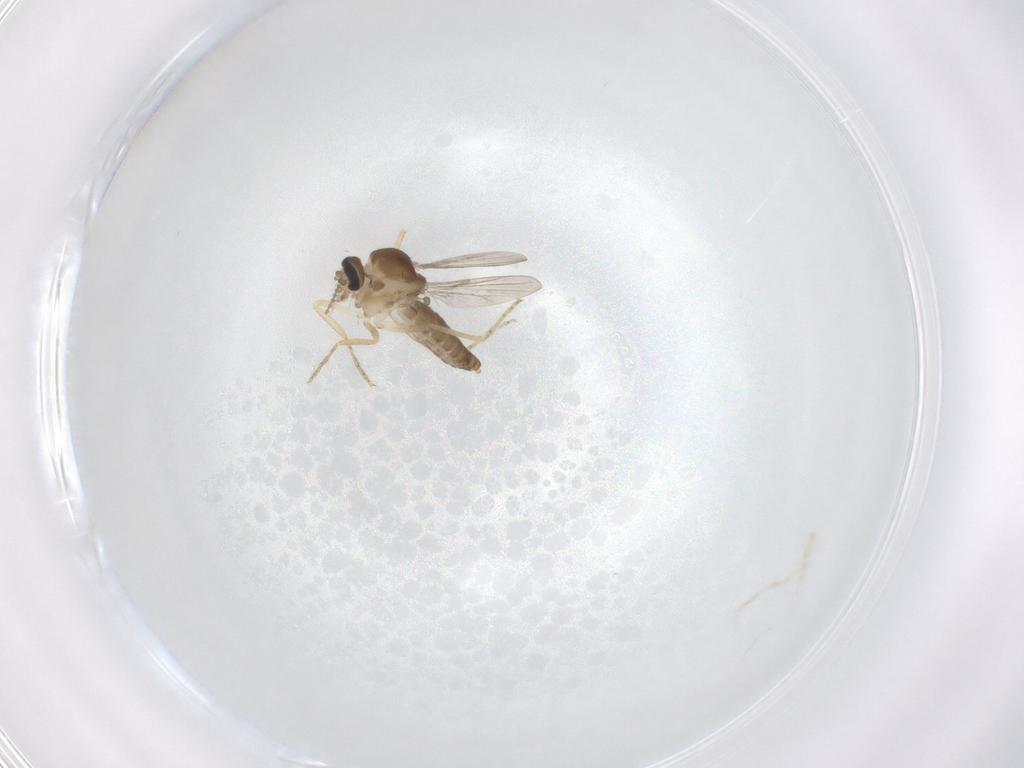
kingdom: Animalia
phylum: Arthropoda
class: Insecta
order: Diptera
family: Ceratopogonidae
